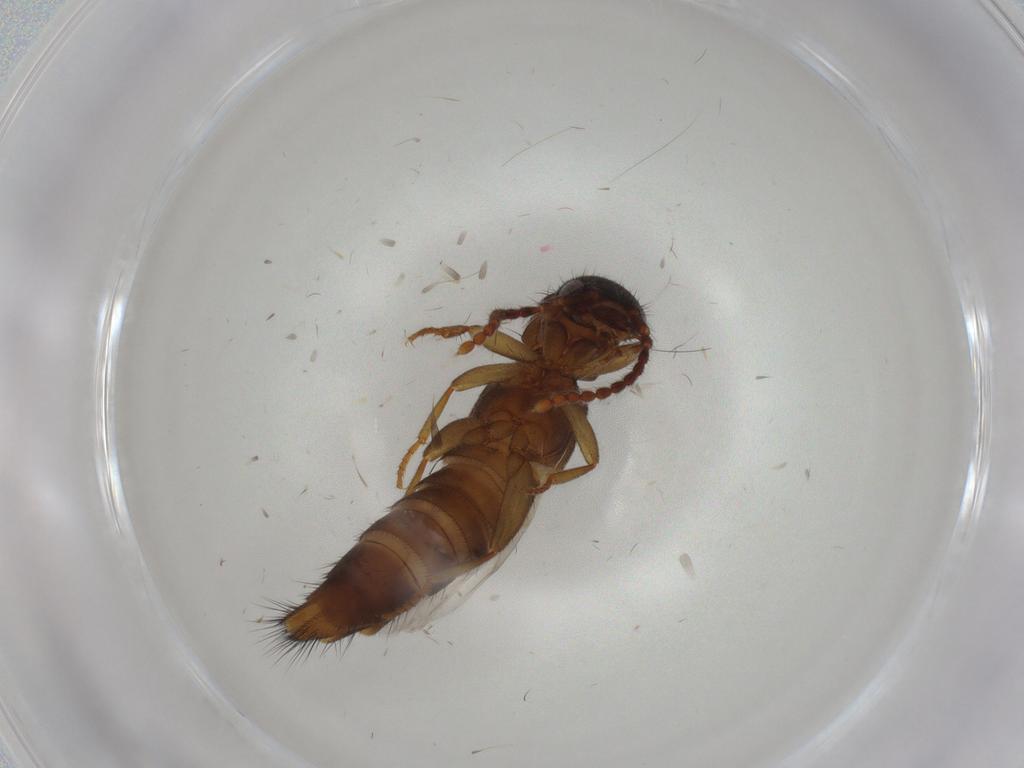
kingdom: Animalia
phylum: Arthropoda
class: Insecta
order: Coleoptera
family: Staphylinidae
